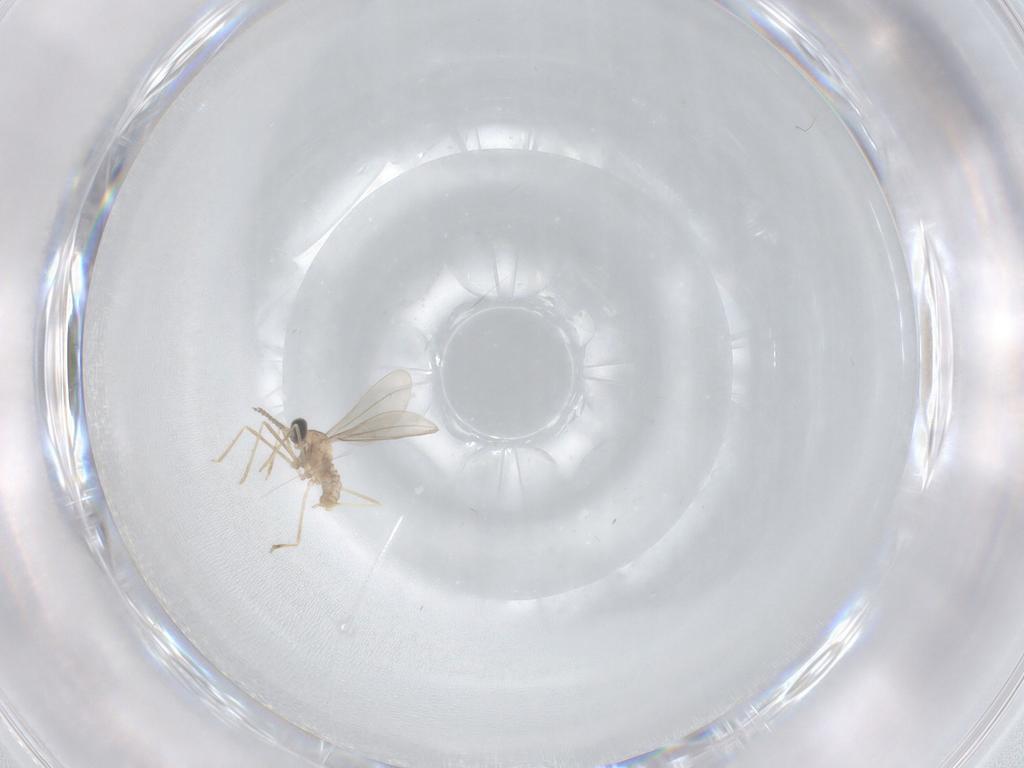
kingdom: Animalia
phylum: Arthropoda
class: Insecta
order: Diptera
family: Cecidomyiidae
